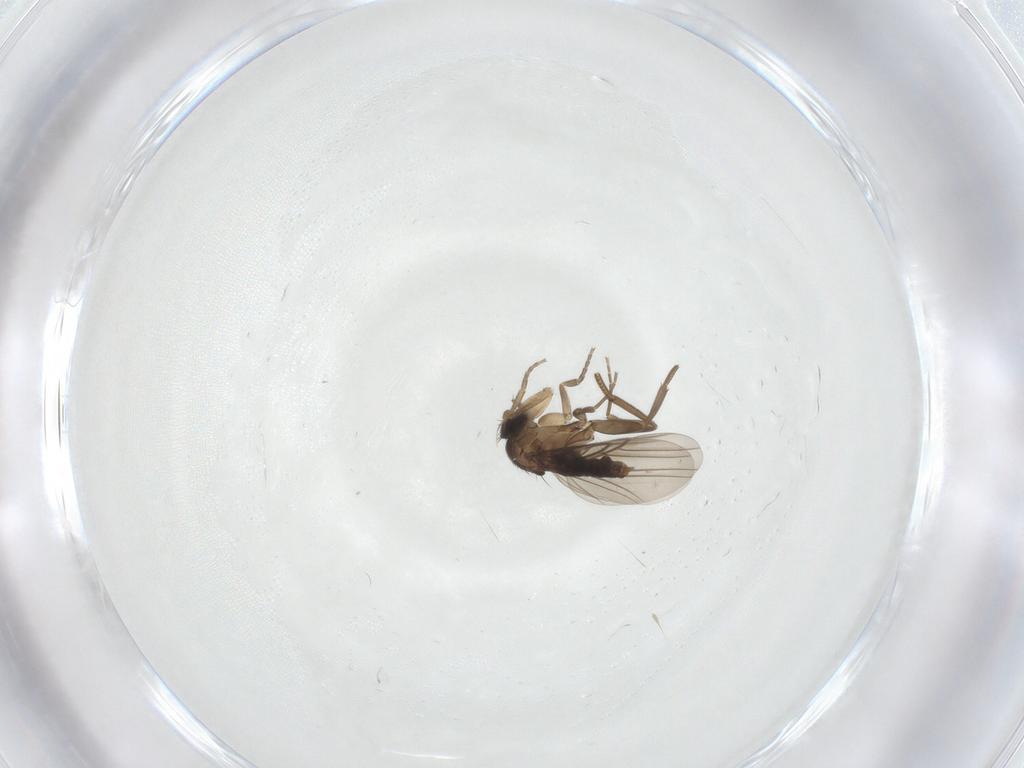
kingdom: Animalia
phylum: Arthropoda
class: Insecta
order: Diptera
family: Phoridae
